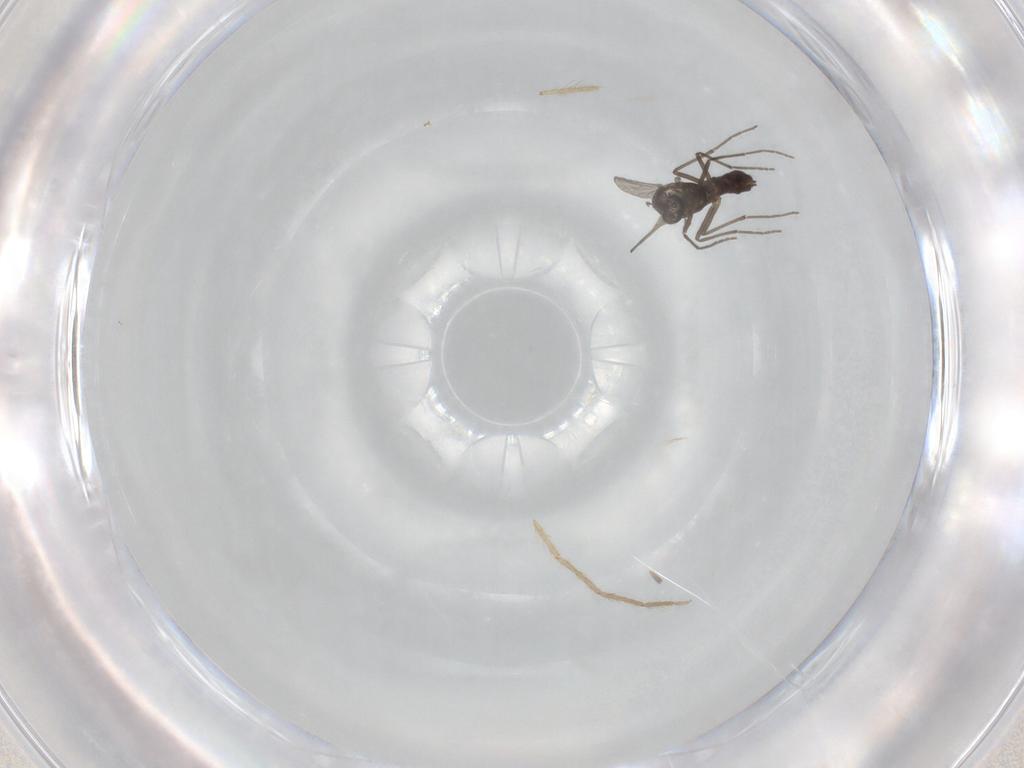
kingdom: Animalia
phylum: Arthropoda
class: Insecta
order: Diptera
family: Chironomidae
